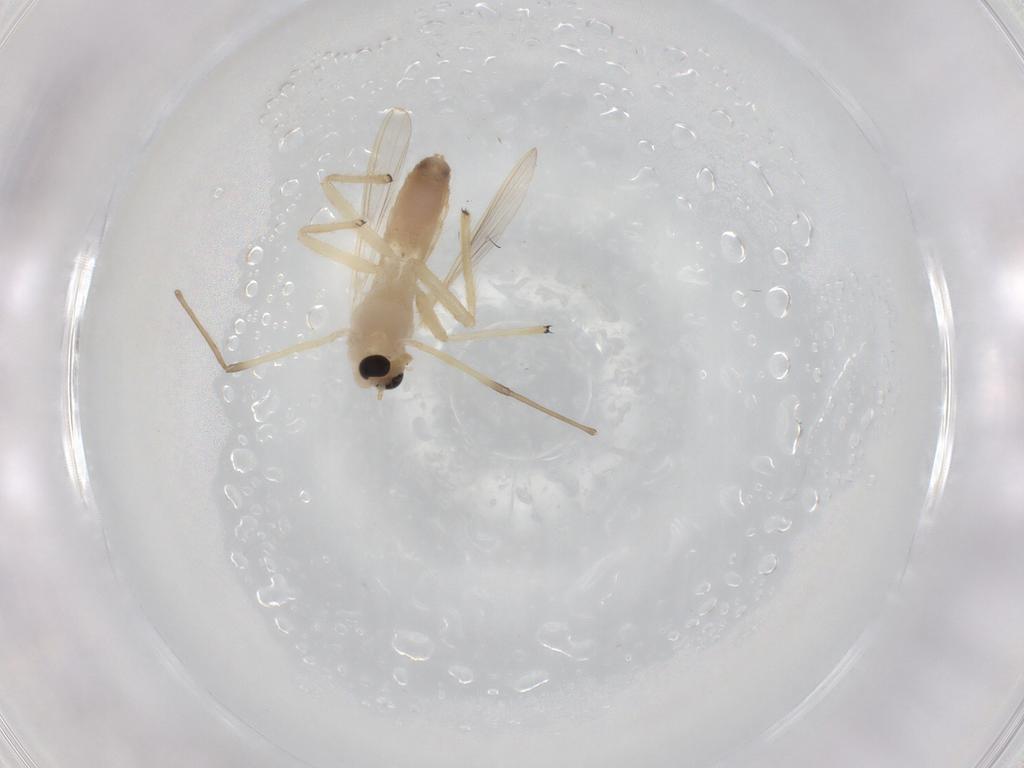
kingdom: Animalia
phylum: Arthropoda
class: Insecta
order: Diptera
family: Chironomidae
